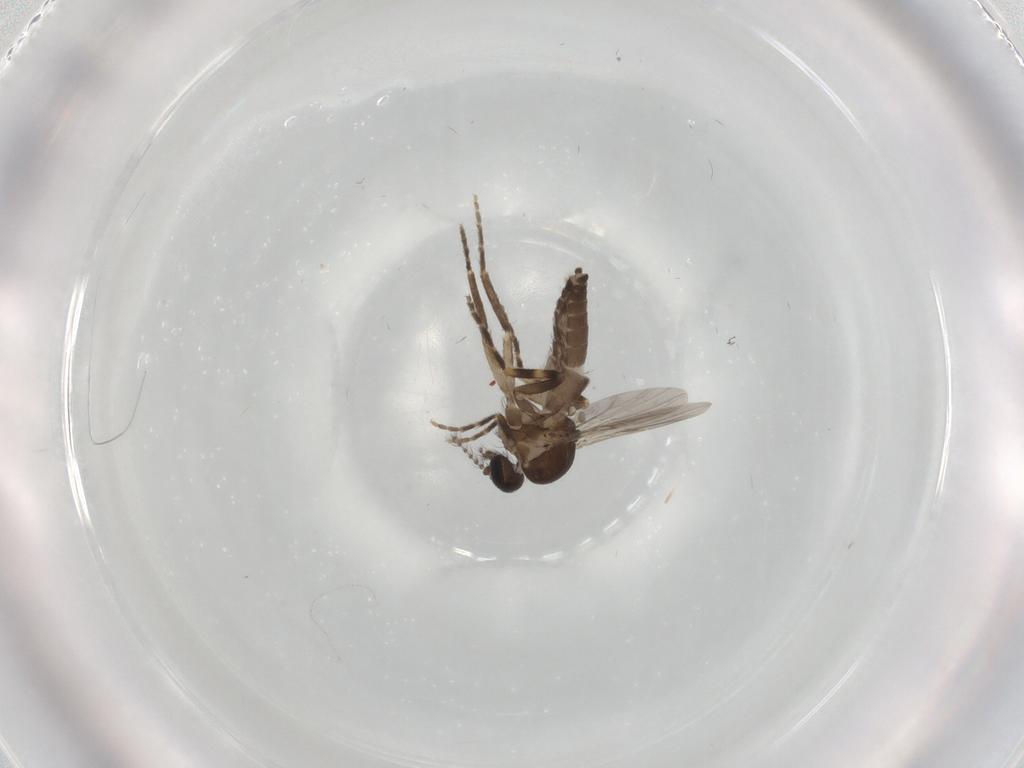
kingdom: Animalia
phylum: Arthropoda
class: Insecta
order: Diptera
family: Ceratopogonidae
